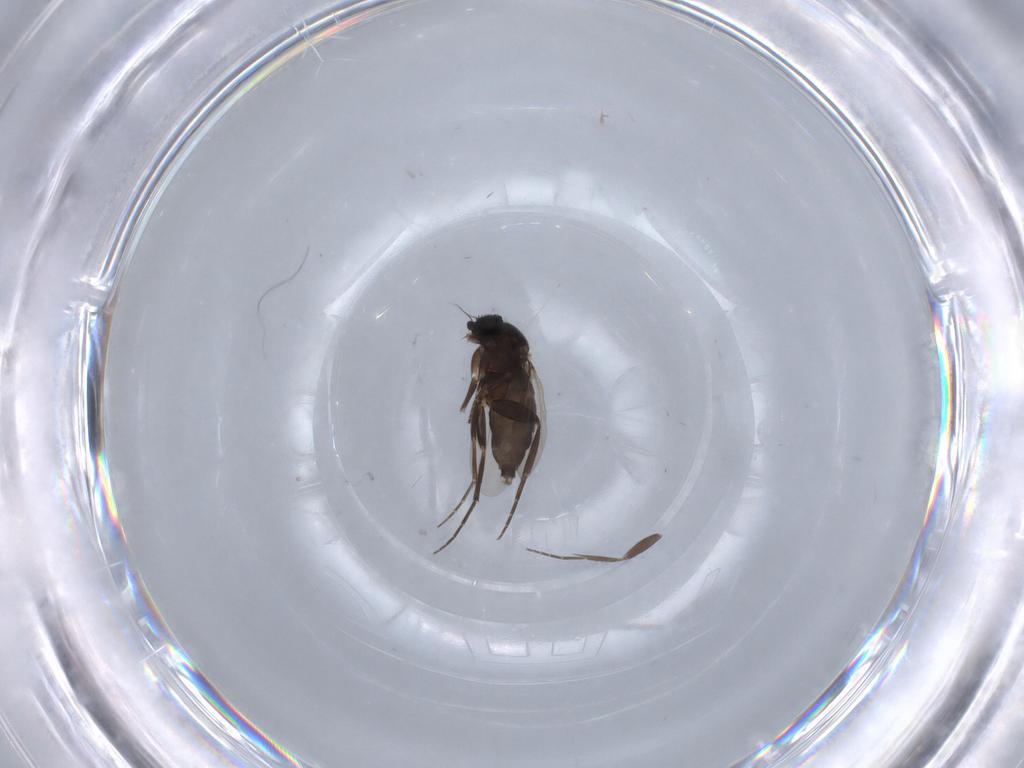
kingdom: Animalia
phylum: Arthropoda
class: Insecta
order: Diptera
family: Phoridae
